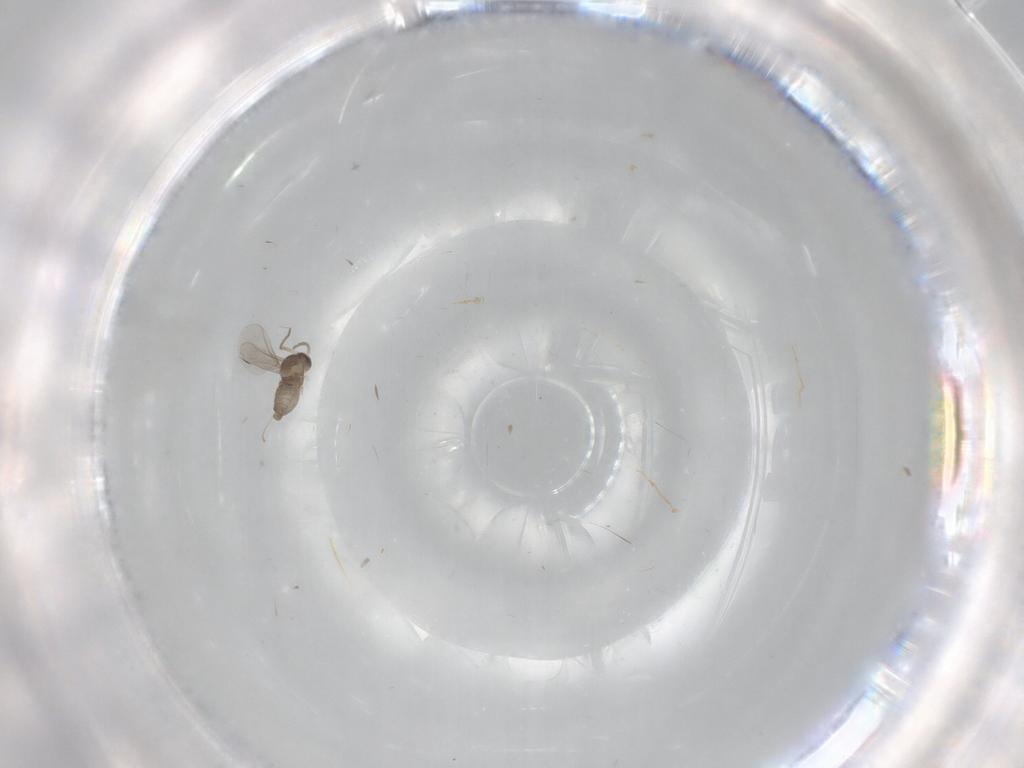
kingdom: Animalia
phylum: Arthropoda
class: Insecta
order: Diptera
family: Cecidomyiidae
